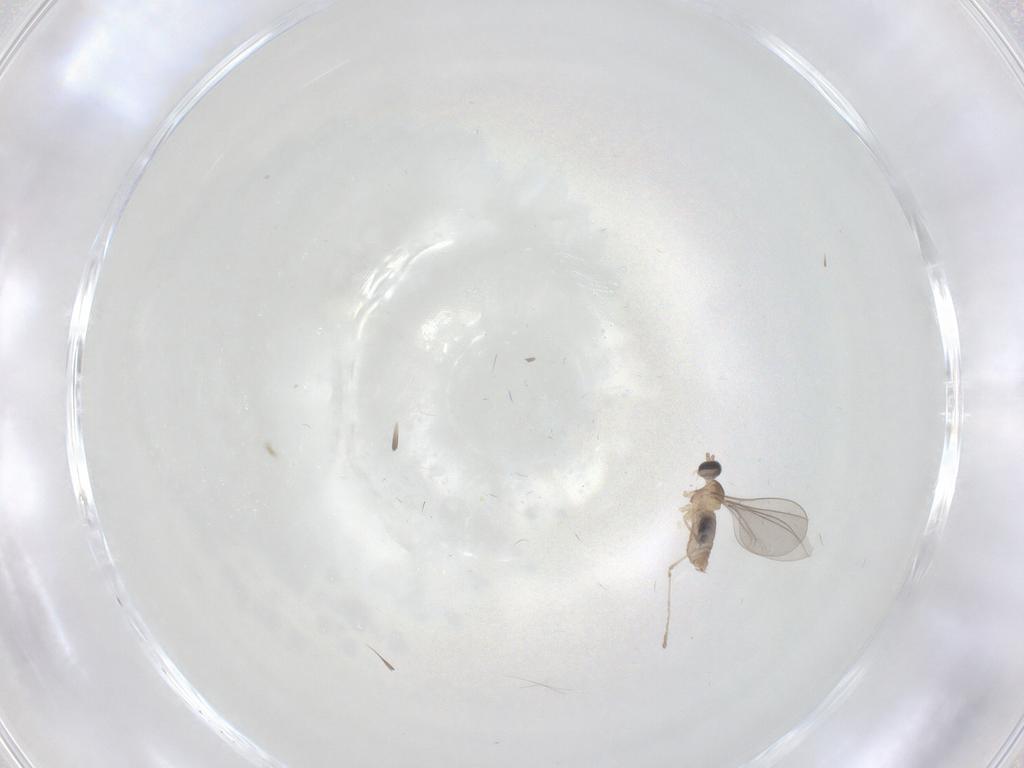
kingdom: Animalia
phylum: Arthropoda
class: Insecta
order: Diptera
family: Cecidomyiidae
